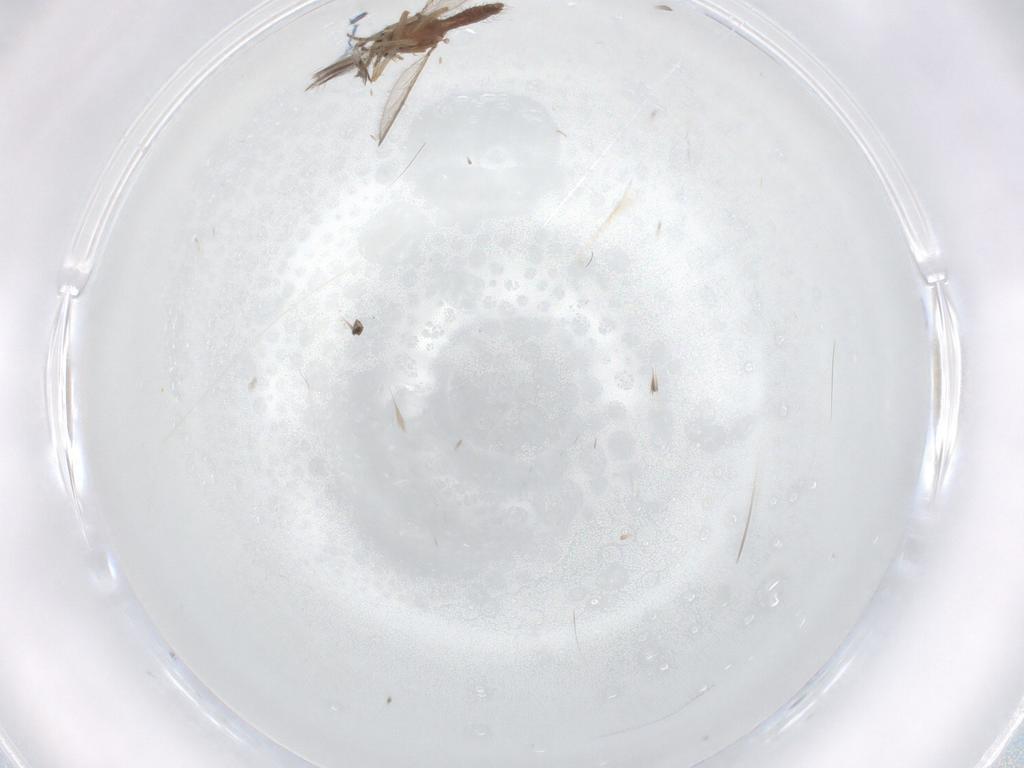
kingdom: Animalia
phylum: Arthropoda
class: Insecta
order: Diptera
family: Ceratopogonidae
